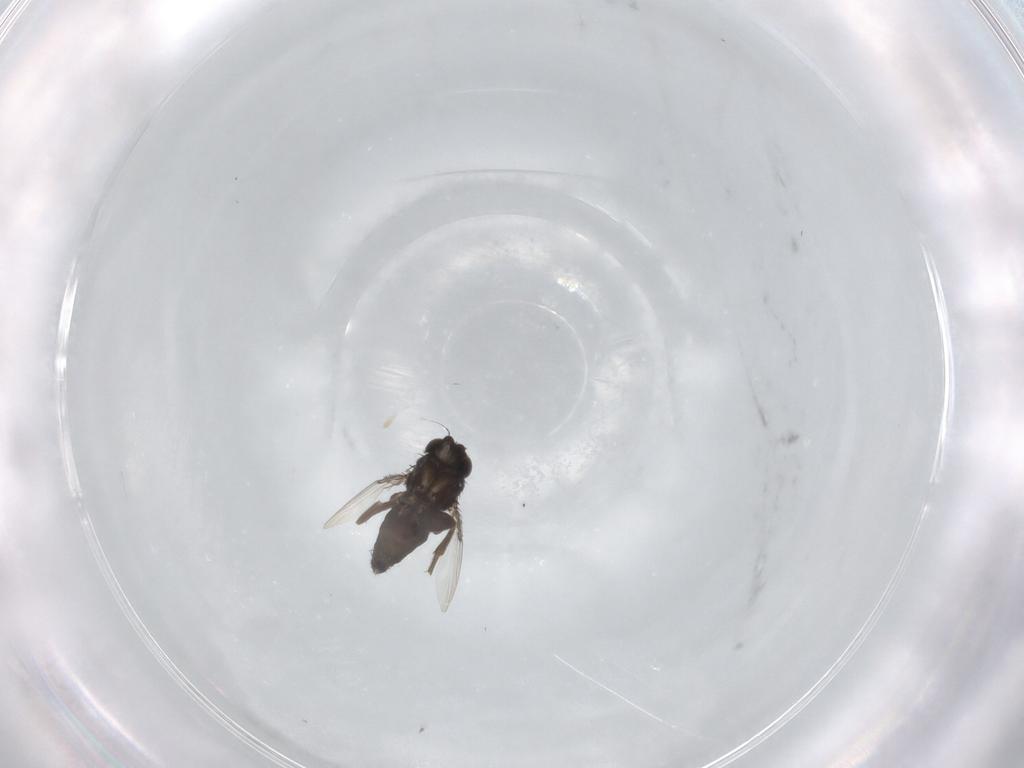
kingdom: Animalia
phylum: Arthropoda
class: Insecta
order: Diptera
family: Phoridae
